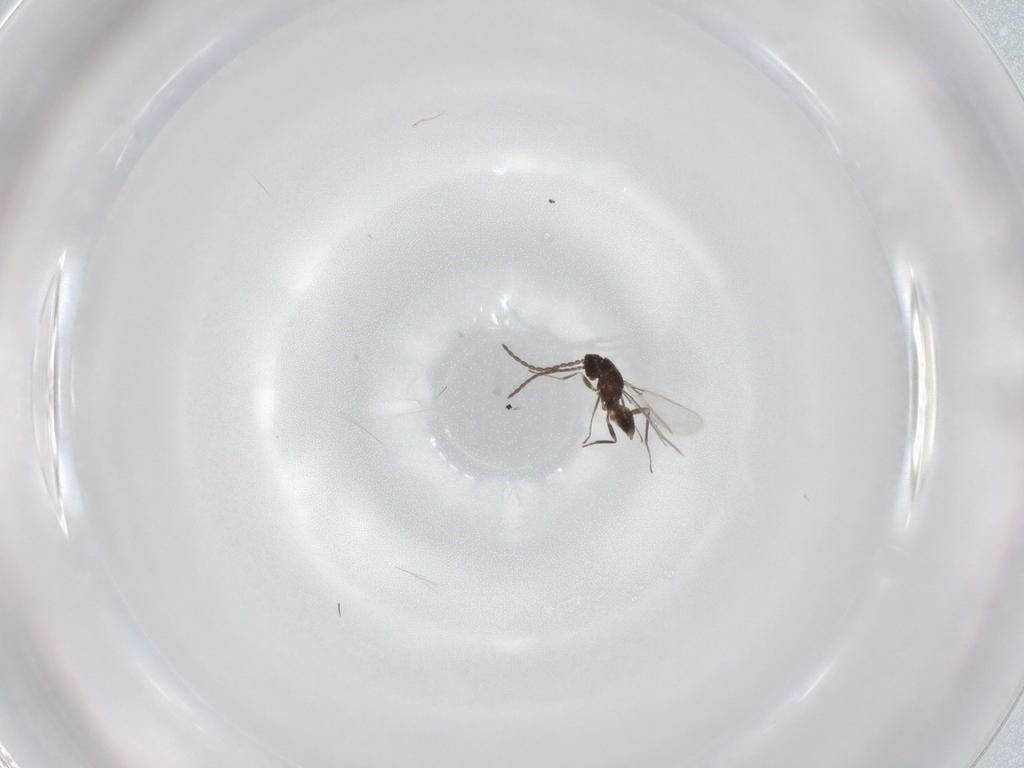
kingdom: Animalia
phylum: Arthropoda
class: Insecta
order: Hymenoptera
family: Mymaridae
